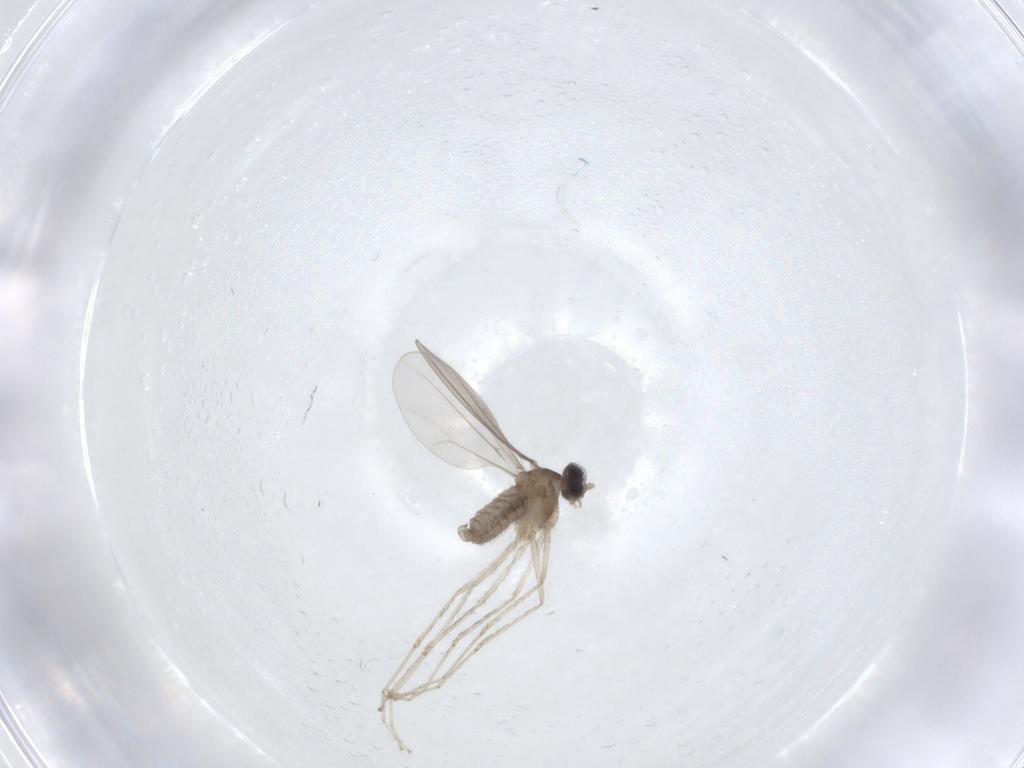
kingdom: Animalia
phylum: Arthropoda
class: Insecta
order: Diptera
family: Cecidomyiidae
